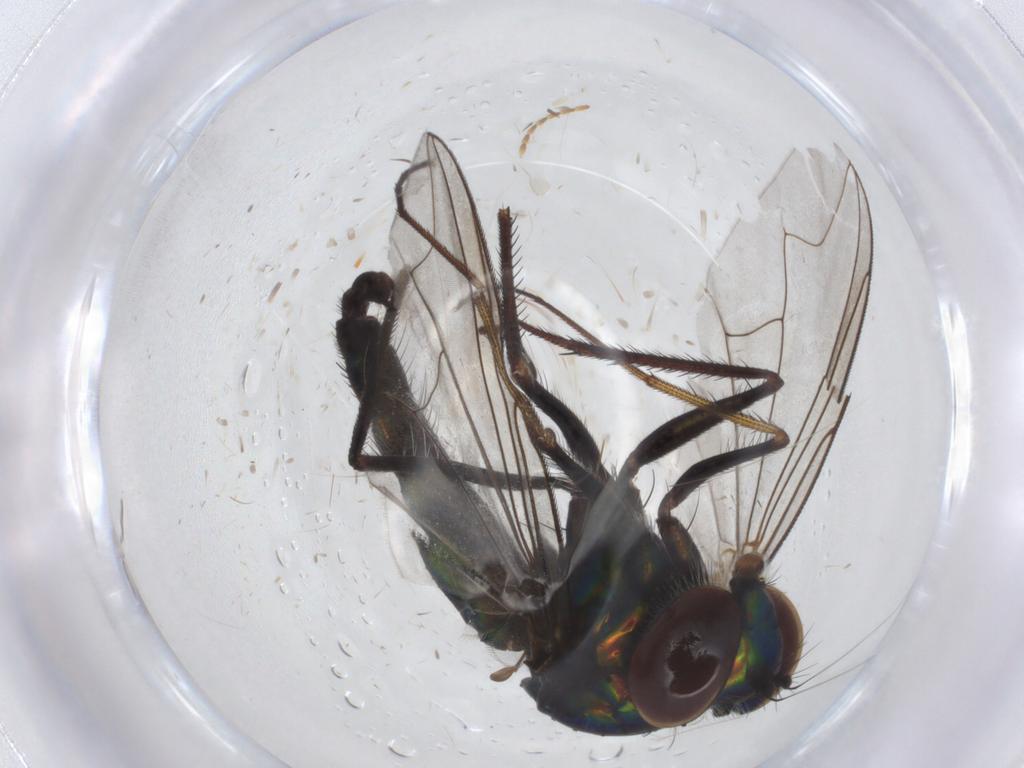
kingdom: Animalia
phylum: Arthropoda
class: Insecta
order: Diptera
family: Dolichopodidae
